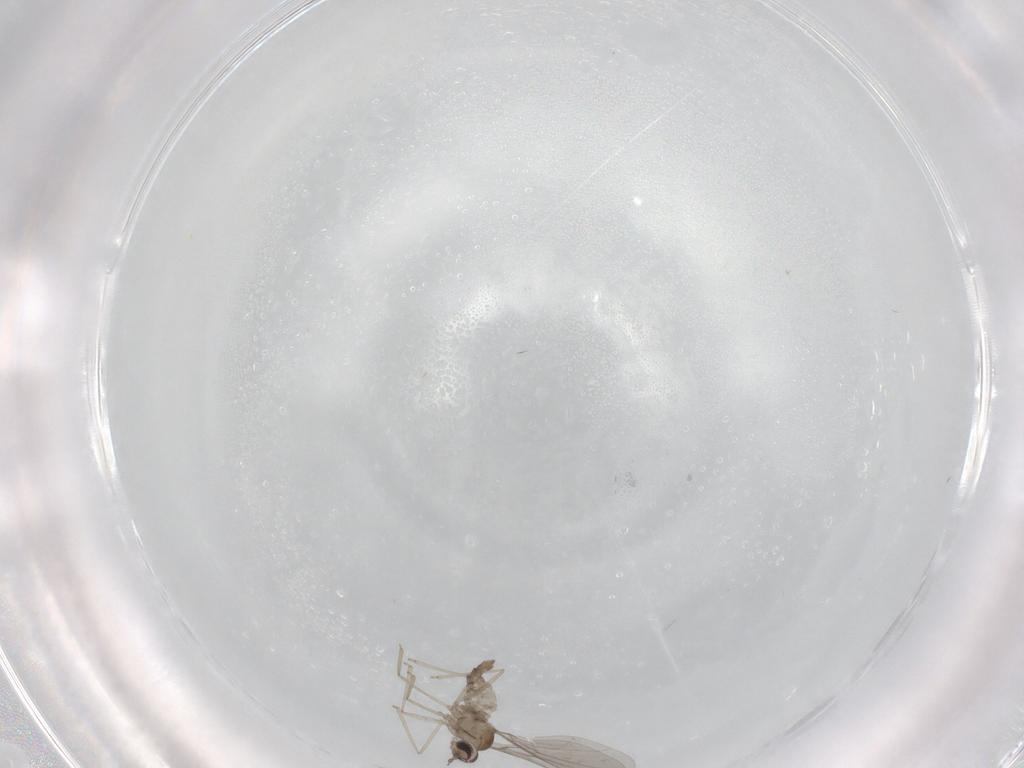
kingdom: Animalia
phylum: Arthropoda
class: Insecta
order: Diptera
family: Cecidomyiidae
